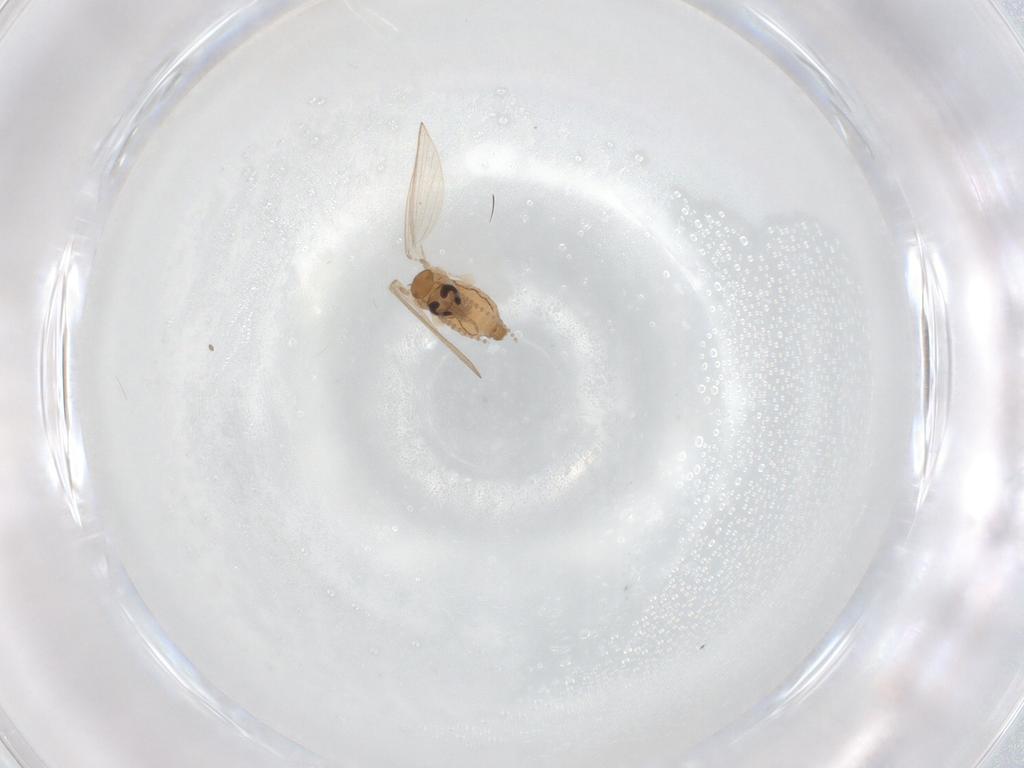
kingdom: Animalia
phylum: Arthropoda
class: Insecta
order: Diptera
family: Psychodidae
